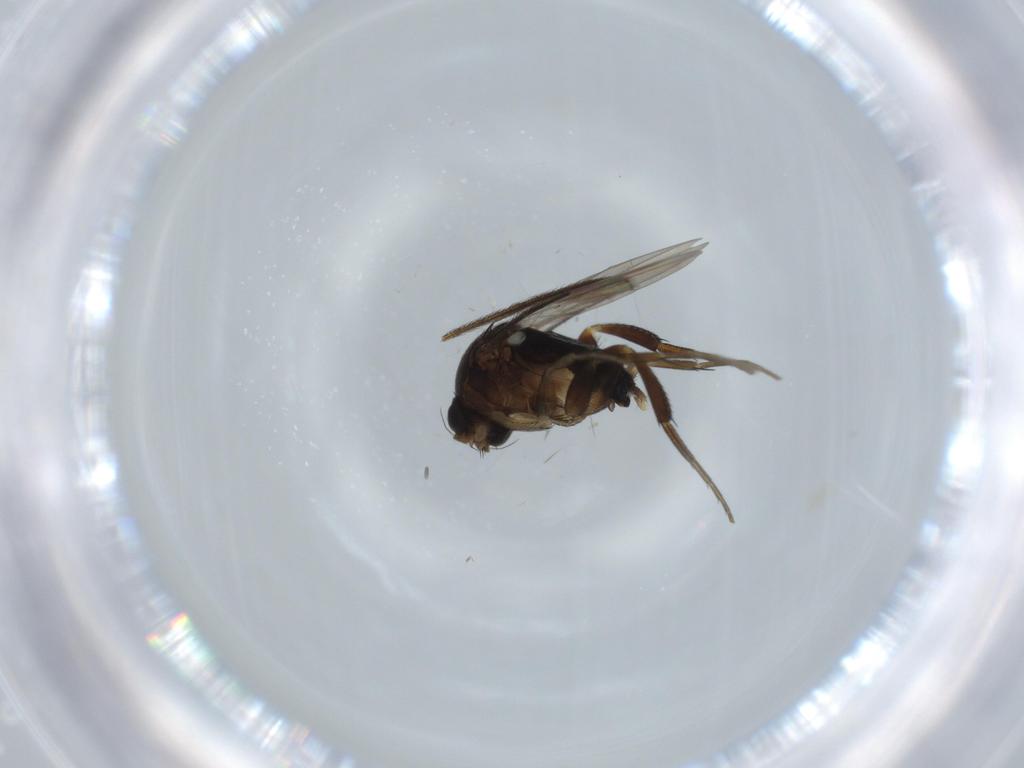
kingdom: Animalia
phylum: Arthropoda
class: Insecta
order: Diptera
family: Phoridae
